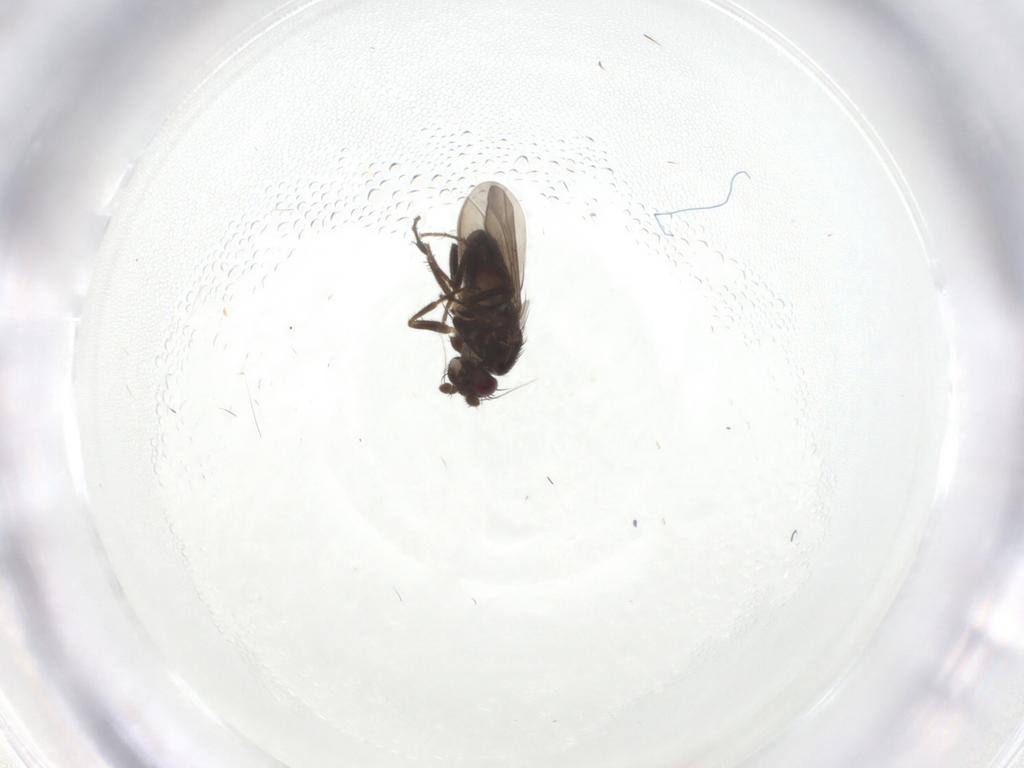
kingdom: Animalia
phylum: Arthropoda
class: Insecta
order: Diptera
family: Sphaeroceridae
